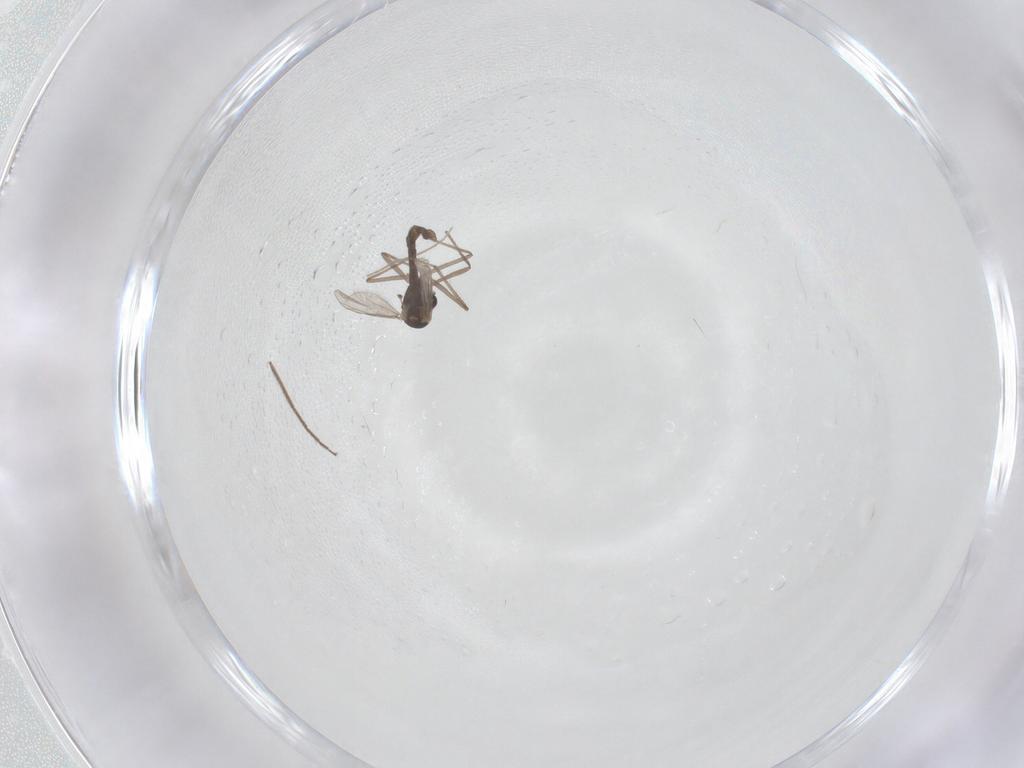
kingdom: Animalia
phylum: Arthropoda
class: Insecta
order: Diptera
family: Chironomidae
